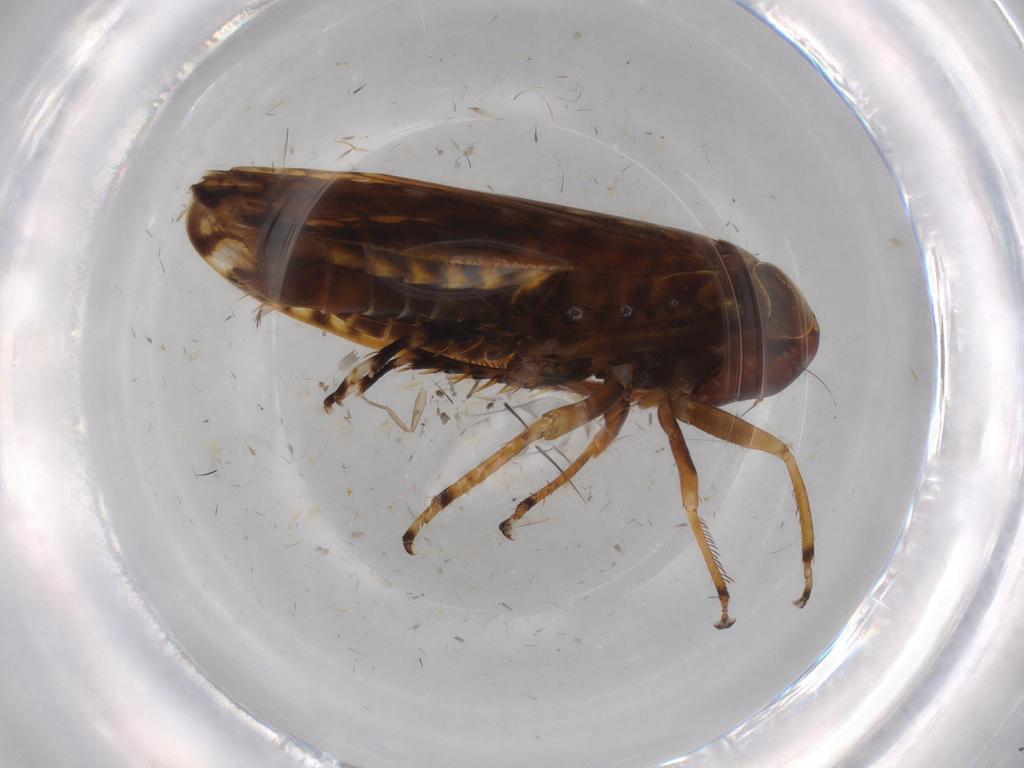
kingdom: Animalia
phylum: Arthropoda
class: Insecta
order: Hemiptera
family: Cicadellidae
